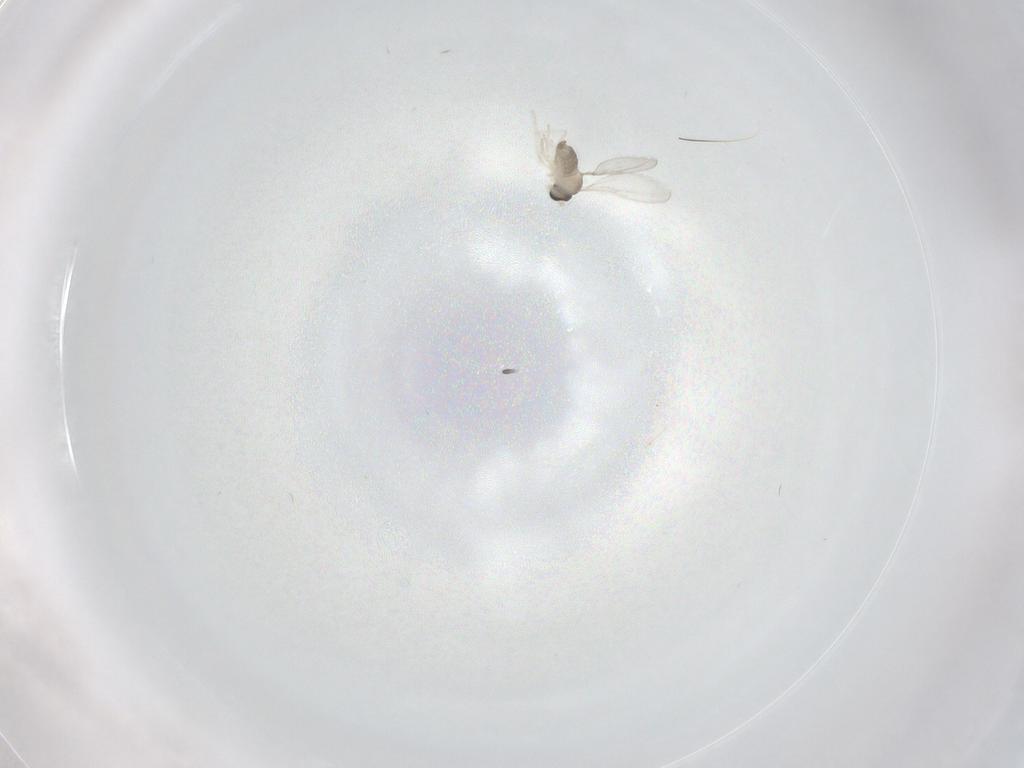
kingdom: Animalia
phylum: Arthropoda
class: Insecta
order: Diptera
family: Cecidomyiidae
